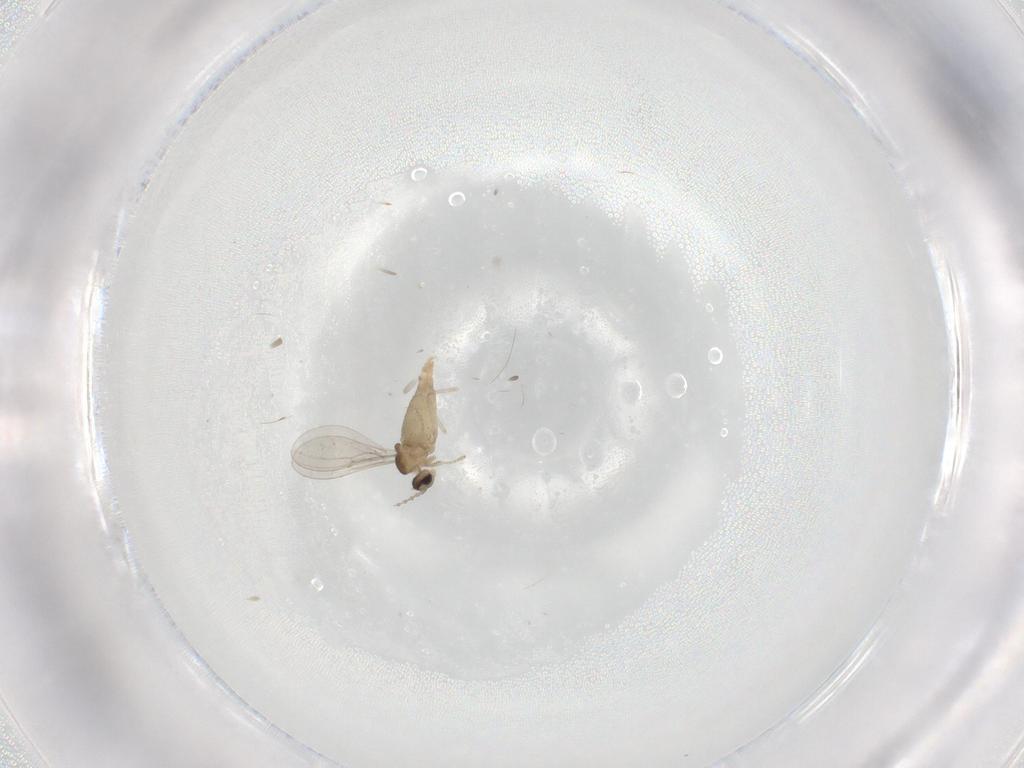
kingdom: Animalia
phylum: Arthropoda
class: Insecta
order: Diptera
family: Cecidomyiidae
